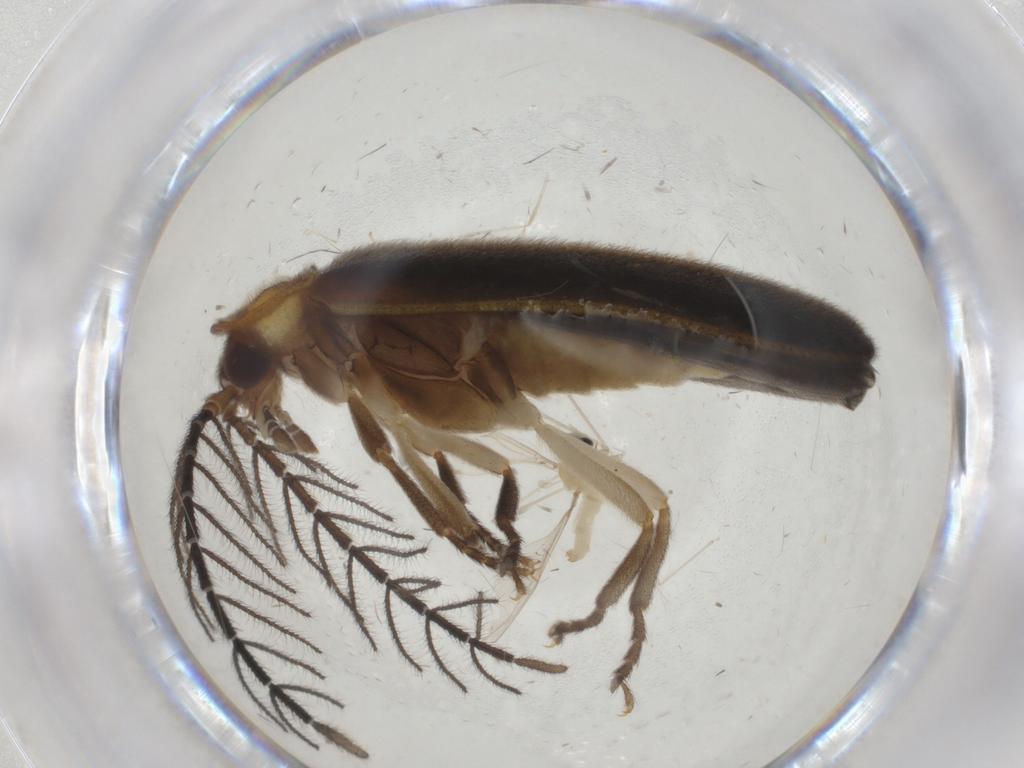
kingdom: Animalia
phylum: Arthropoda
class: Insecta
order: Diptera
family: Cecidomyiidae
